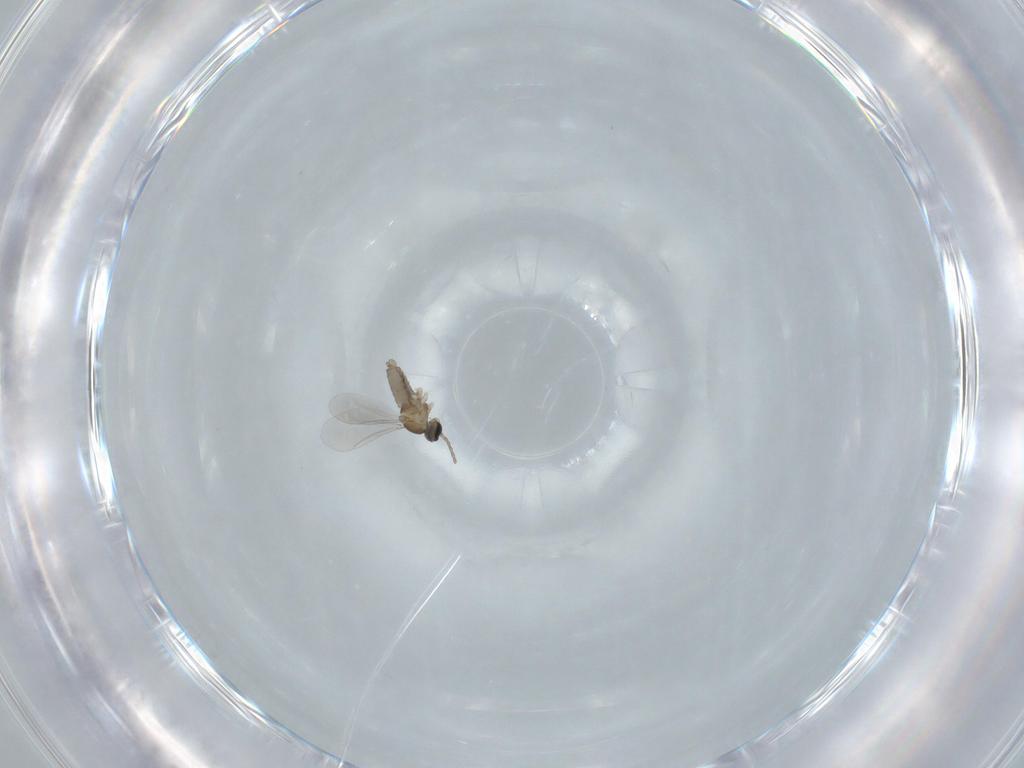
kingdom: Animalia
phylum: Arthropoda
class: Insecta
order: Diptera
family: Cecidomyiidae
